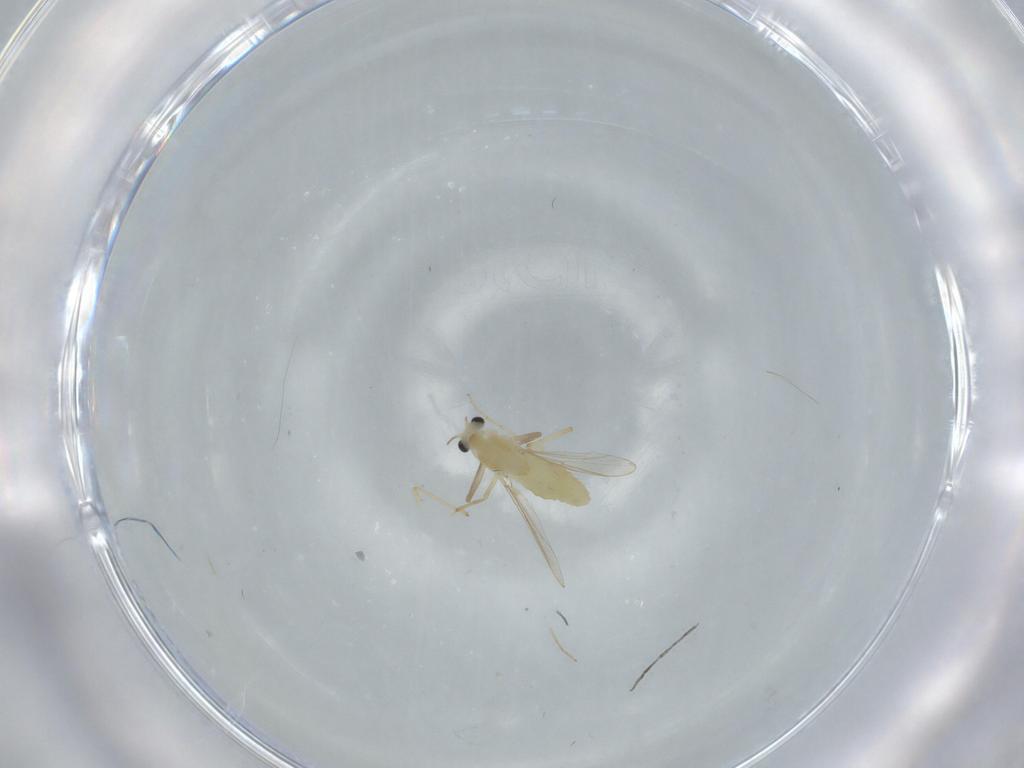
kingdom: Animalia
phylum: Arthropoda
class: Insecta
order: Diptera
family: Chironomidae
